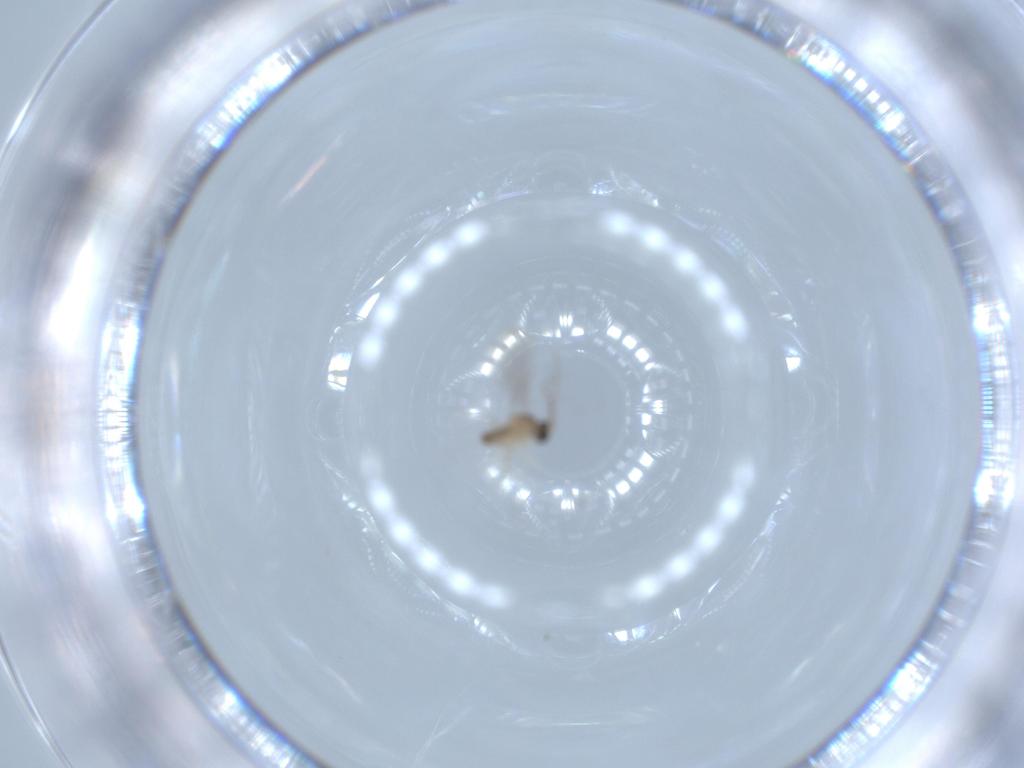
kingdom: Animalia
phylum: Arthropoda
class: Insecta
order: Diptera
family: Cecidomyiidae
